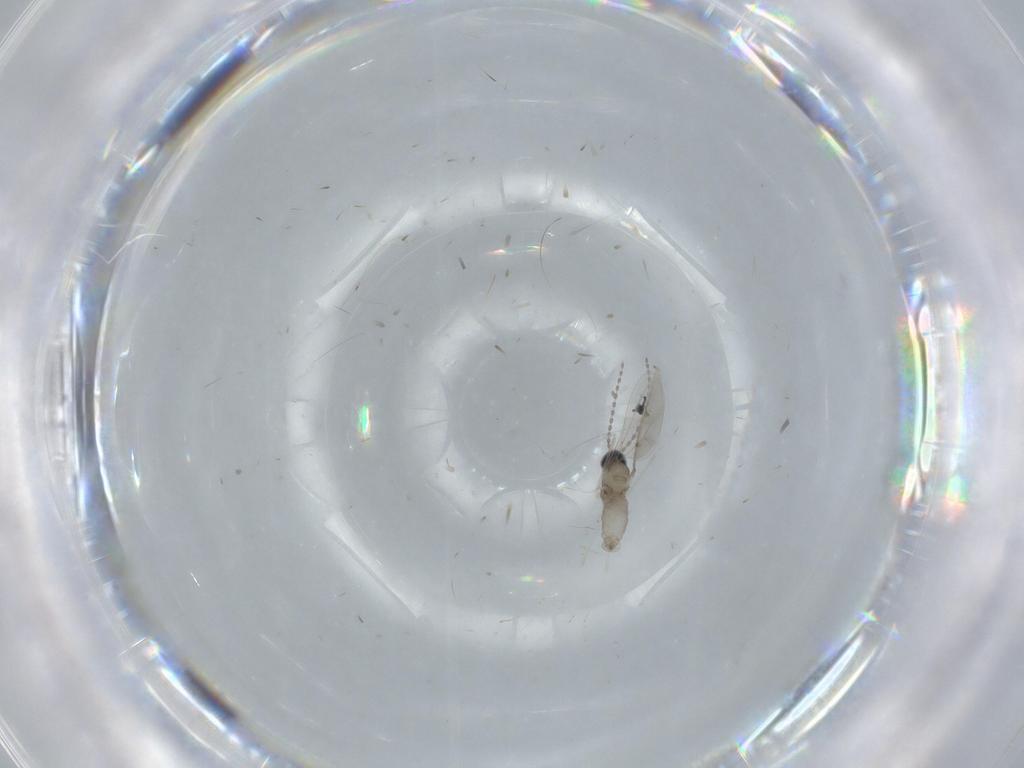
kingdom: Animalia
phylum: Arthropoda
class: Insecta
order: Diptera
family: Cecidomyiidae
